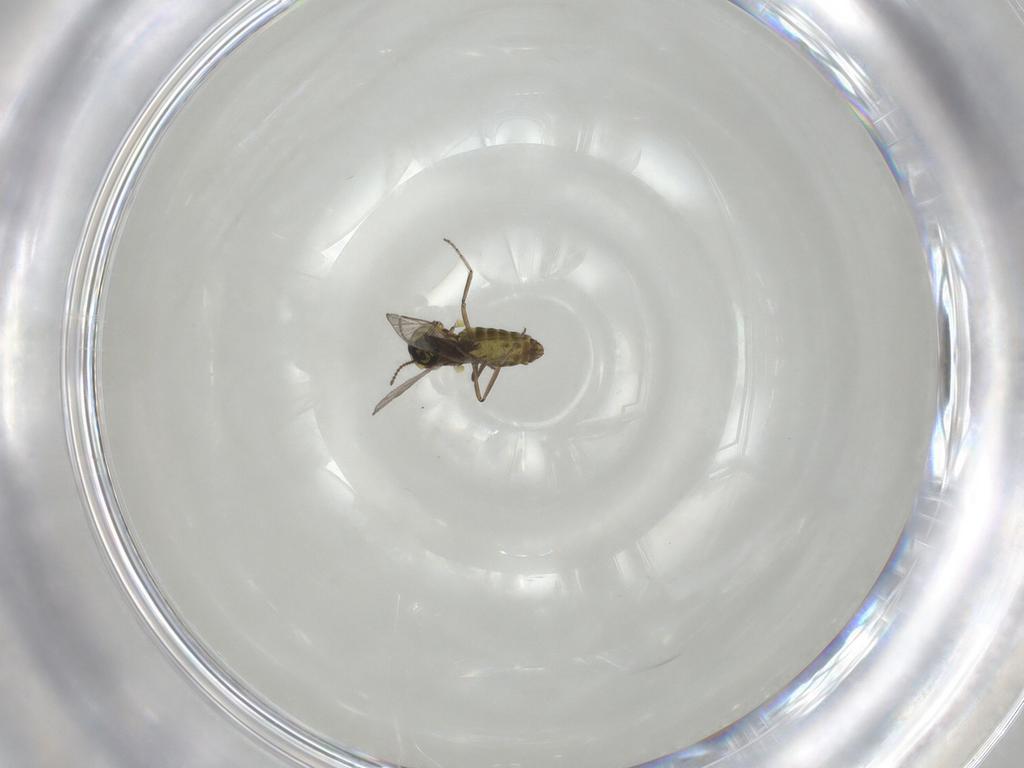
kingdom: Animalia
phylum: Arthropoda
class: Insecta
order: Diptera
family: Ceratopogonidae
